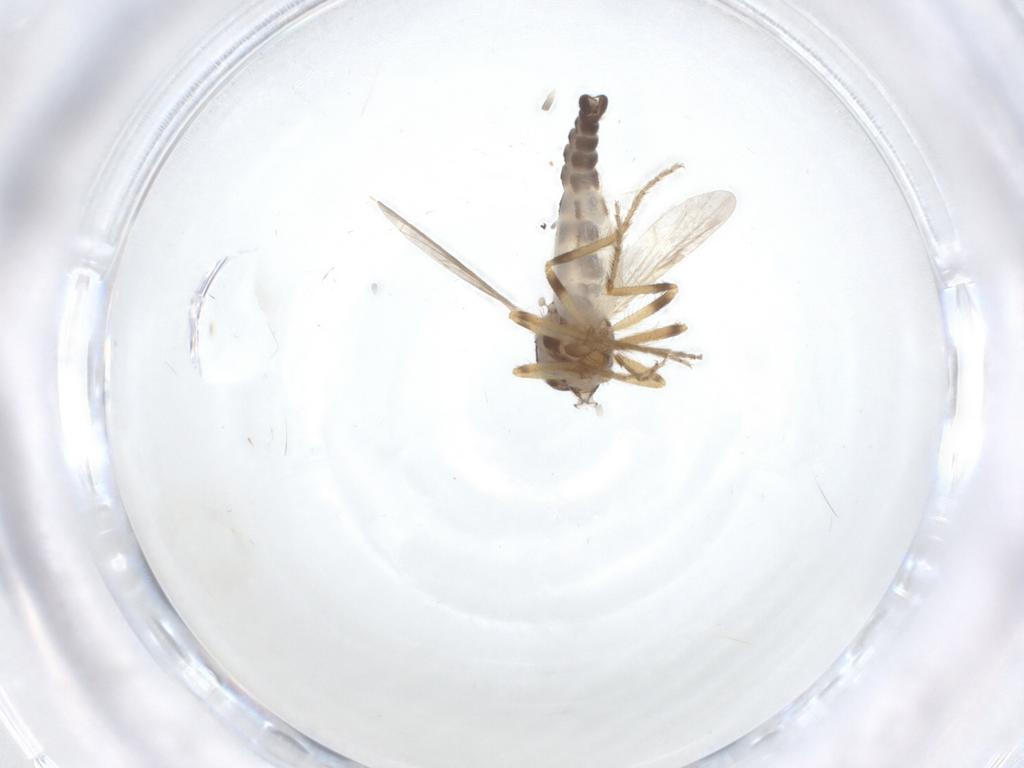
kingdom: Animalia
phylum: Arthropoda
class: Insecta
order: Diptera
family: Ceratopogonidae
